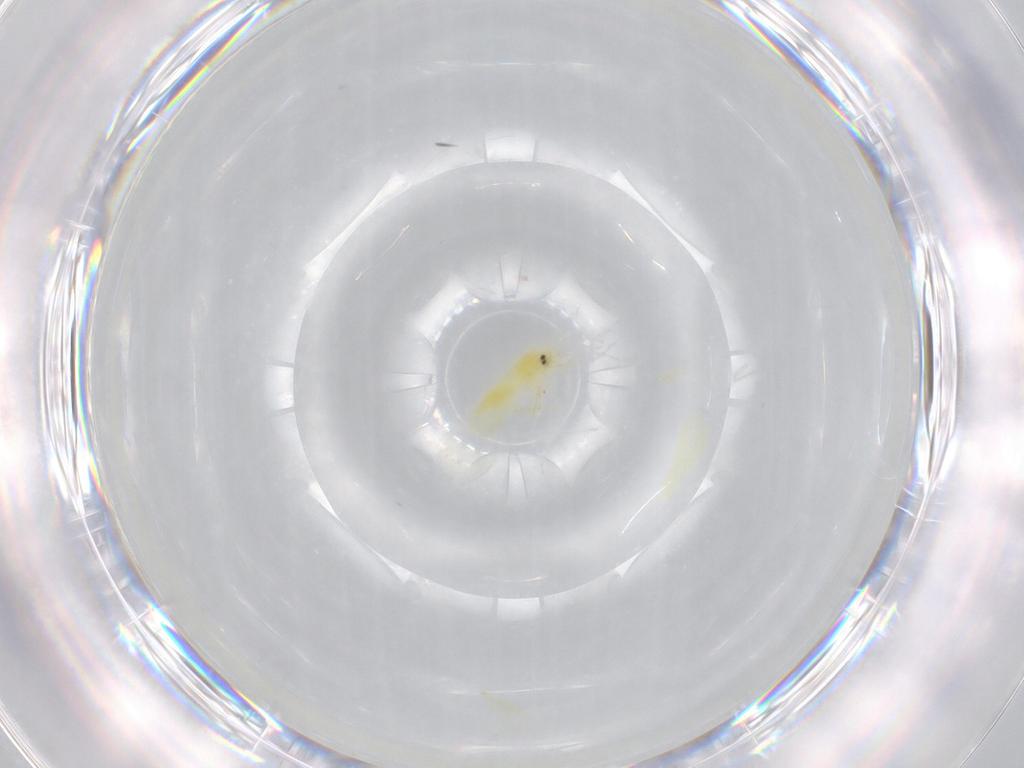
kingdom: Animalia
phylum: Arthropoda
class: Insecta
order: Hemiptera
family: Aleyrodidae
